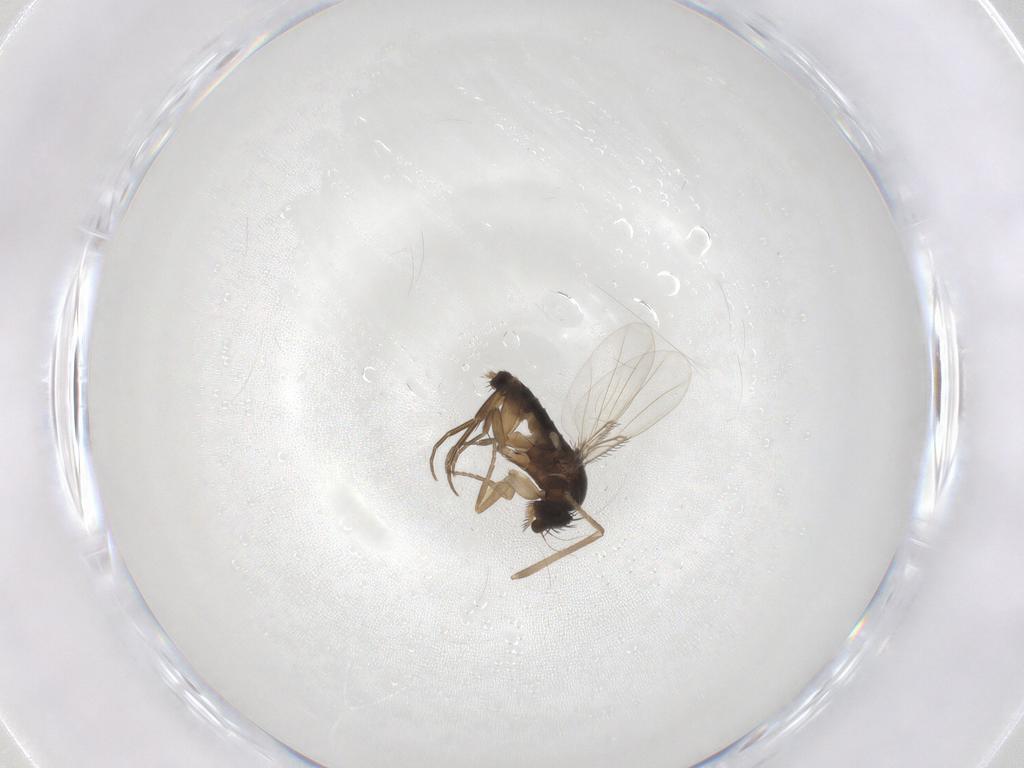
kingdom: Animalia
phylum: Arthropoda
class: Insecta
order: Diptera
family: Phoridae
